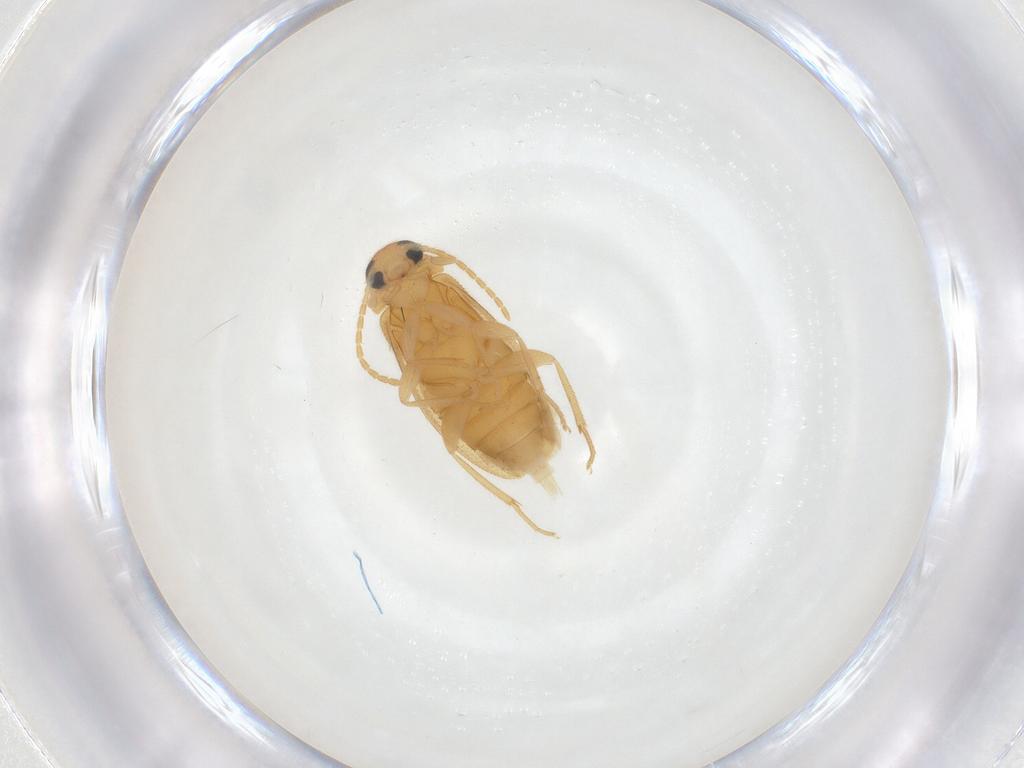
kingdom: Animalia
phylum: Arthropoda
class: Insecta
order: Coleoptera
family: Scraptiidae
